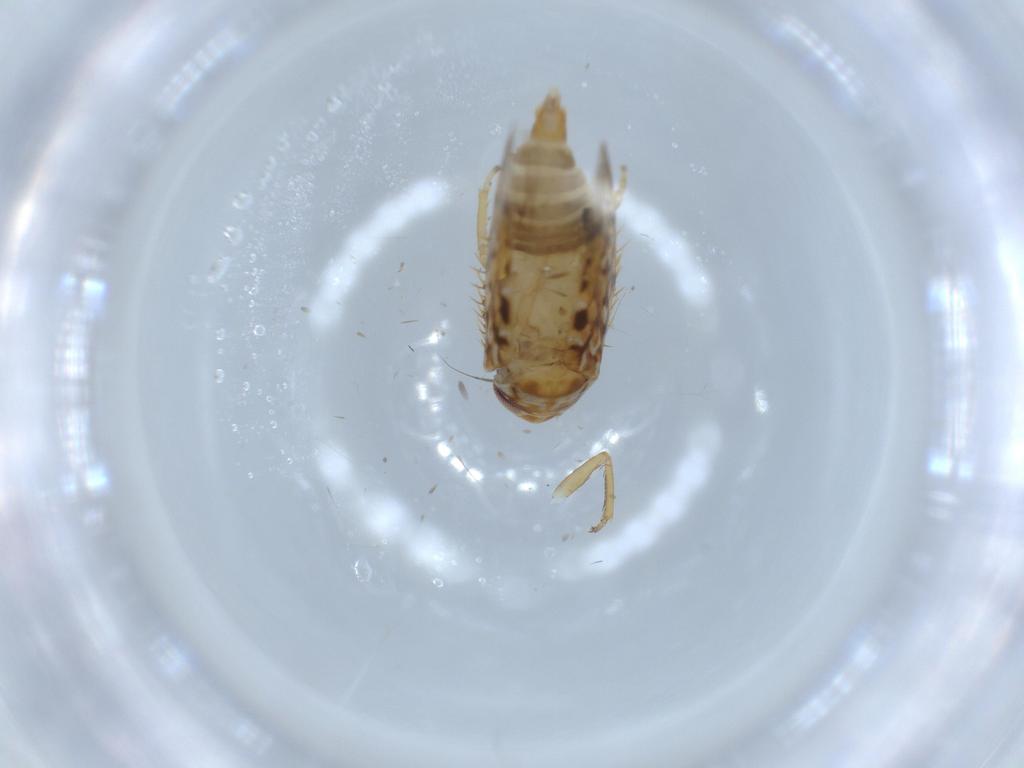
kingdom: Animalia
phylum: Arthropoda
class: Insecta
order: Hemiptera
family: Cicadellidae
